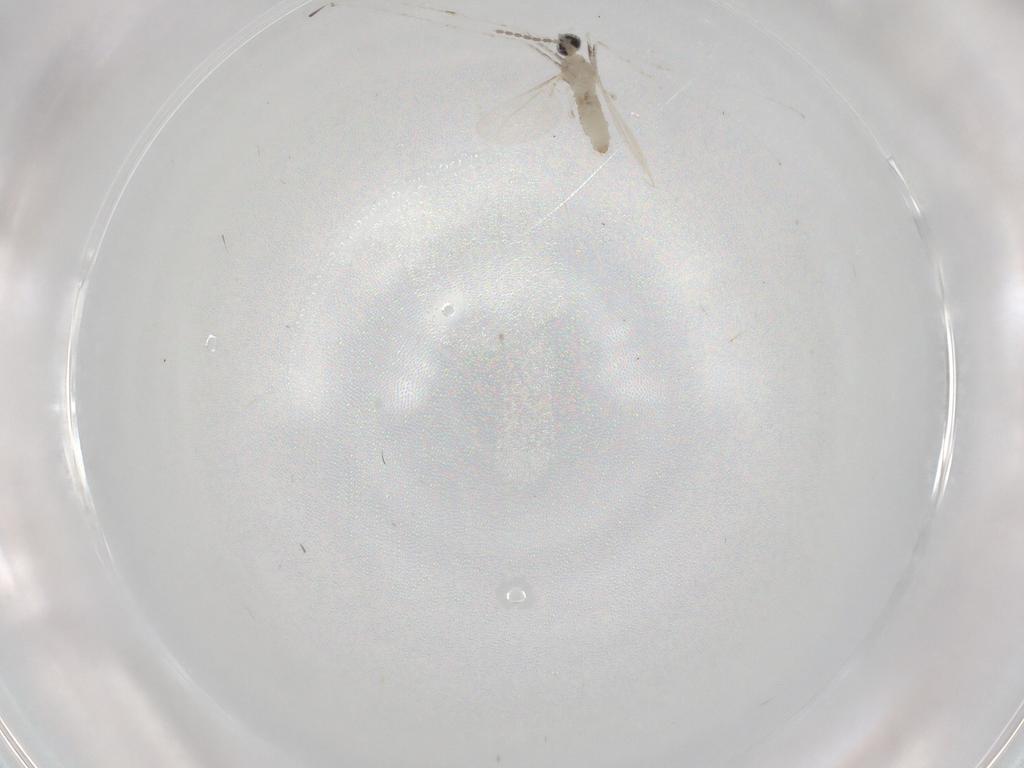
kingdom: Animalia
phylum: Arthropoda
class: Insecta
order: Diptera
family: Cecidomyiidae
